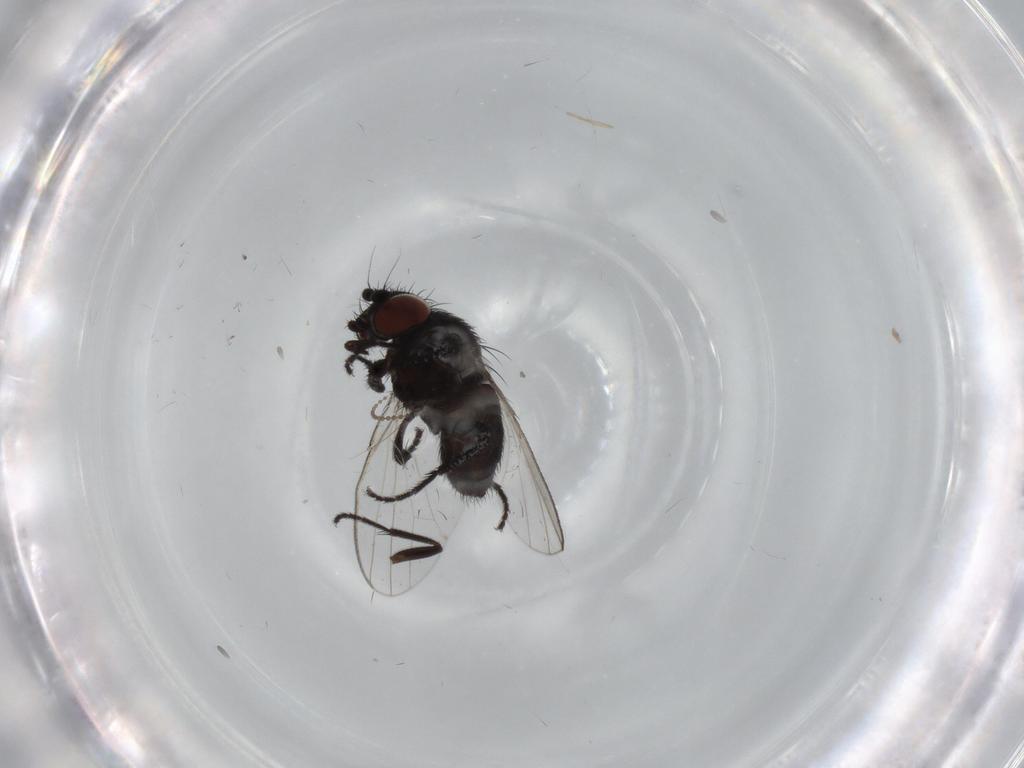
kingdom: Animalia
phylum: Arthropoda
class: Insecta
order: Diptera
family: Cecidomyiidae
